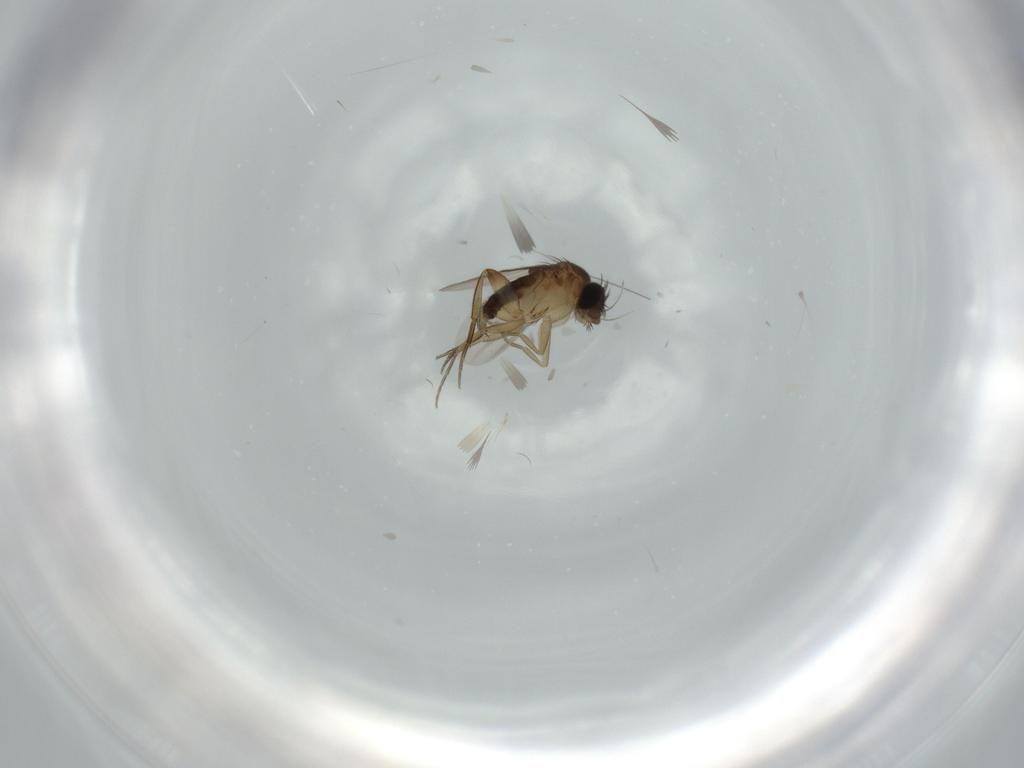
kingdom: Animalia
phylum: Arthropoda
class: Insecta
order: Diptera
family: Phoridae
